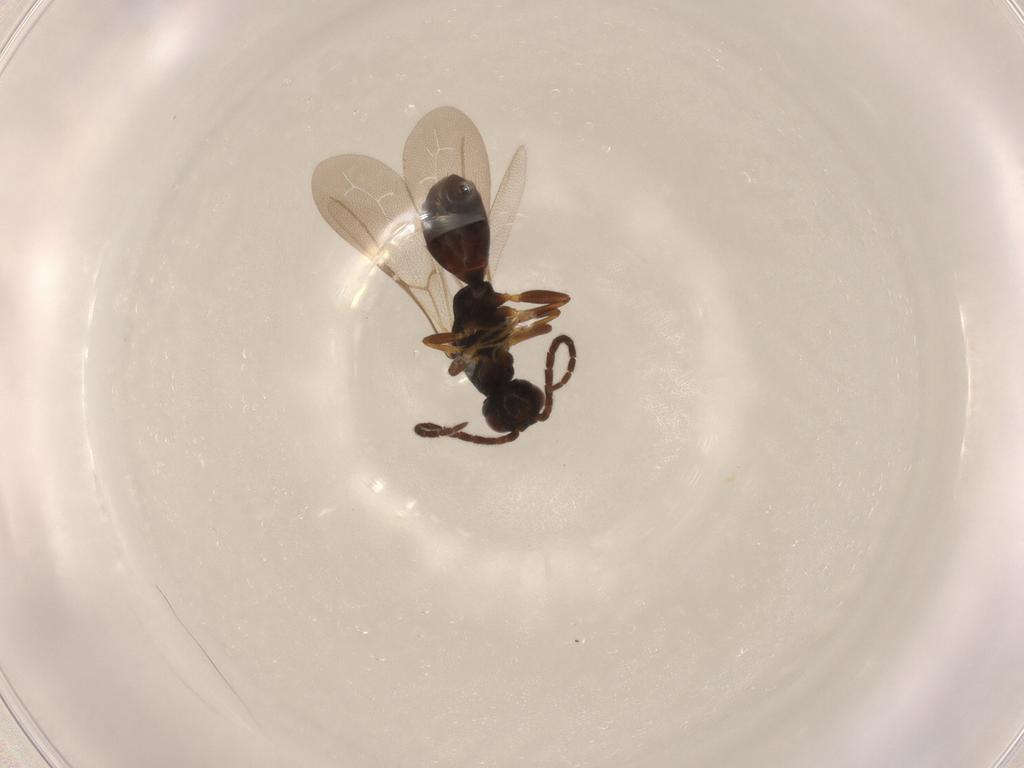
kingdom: Animalia
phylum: Arthropoda
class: Insecta
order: Hymenoptera
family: Bethylidae
